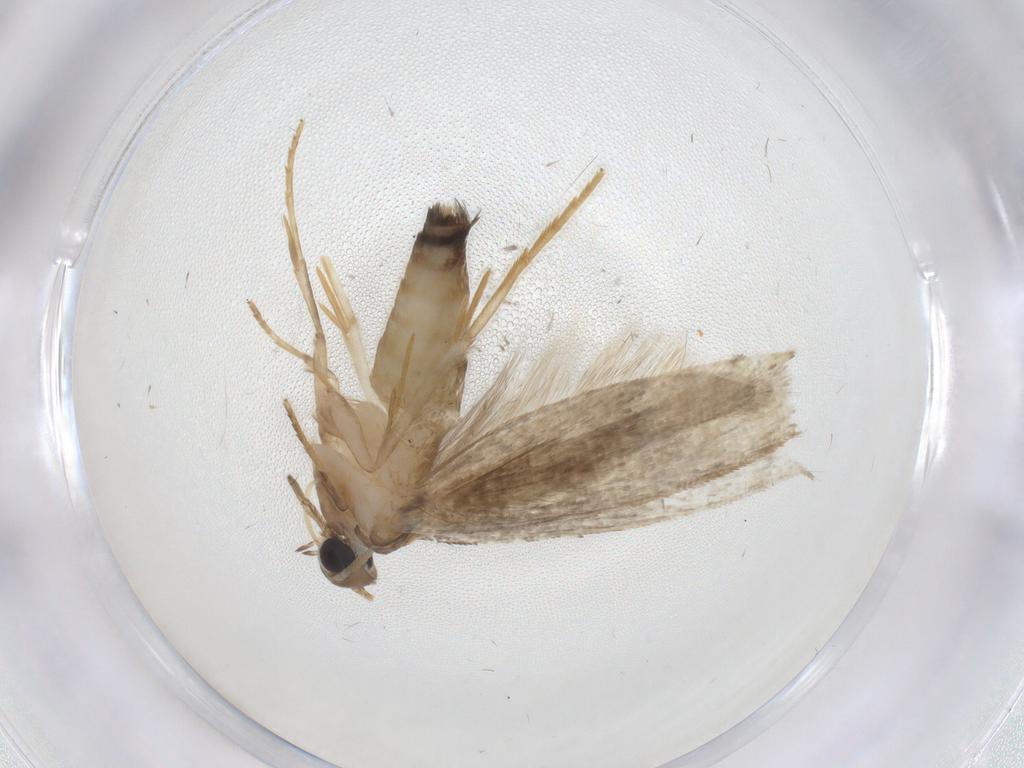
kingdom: Animalia
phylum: Arthropoda
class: Insecta
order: Lepidoptera
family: Tineidae
